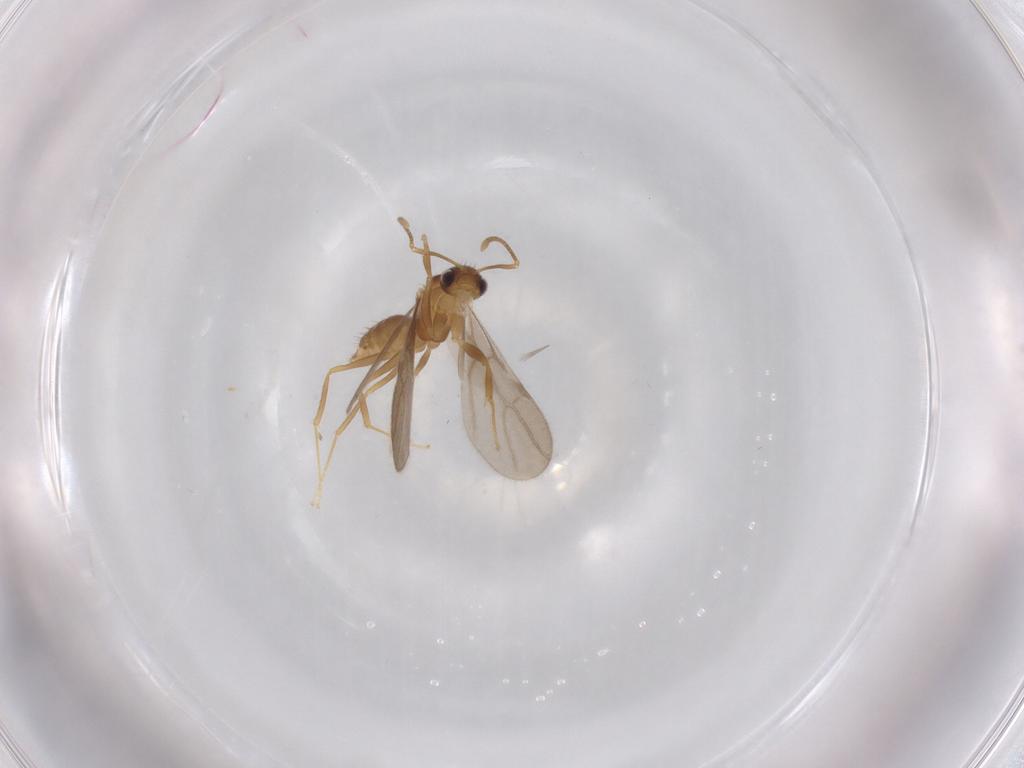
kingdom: Animalia
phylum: Arthropoda
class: Insecta
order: Hymenoptera
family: Formicidae
